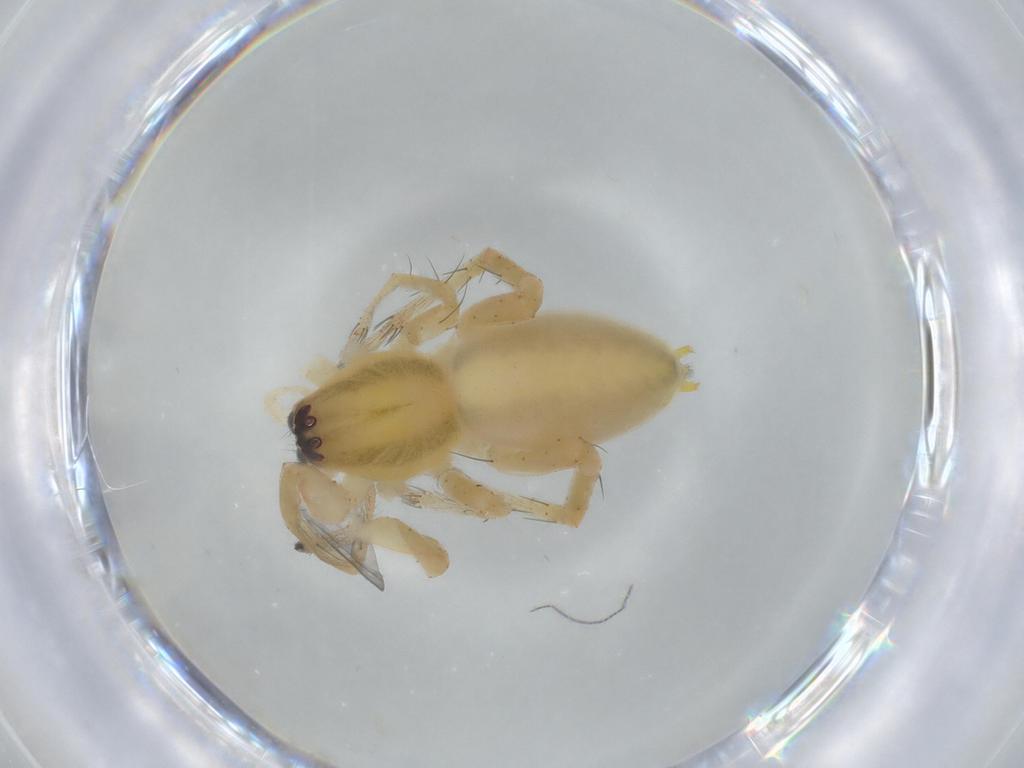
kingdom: Animalia
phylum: Arthropoda
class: Arachnida
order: Araneae
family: Anyphaenidae
